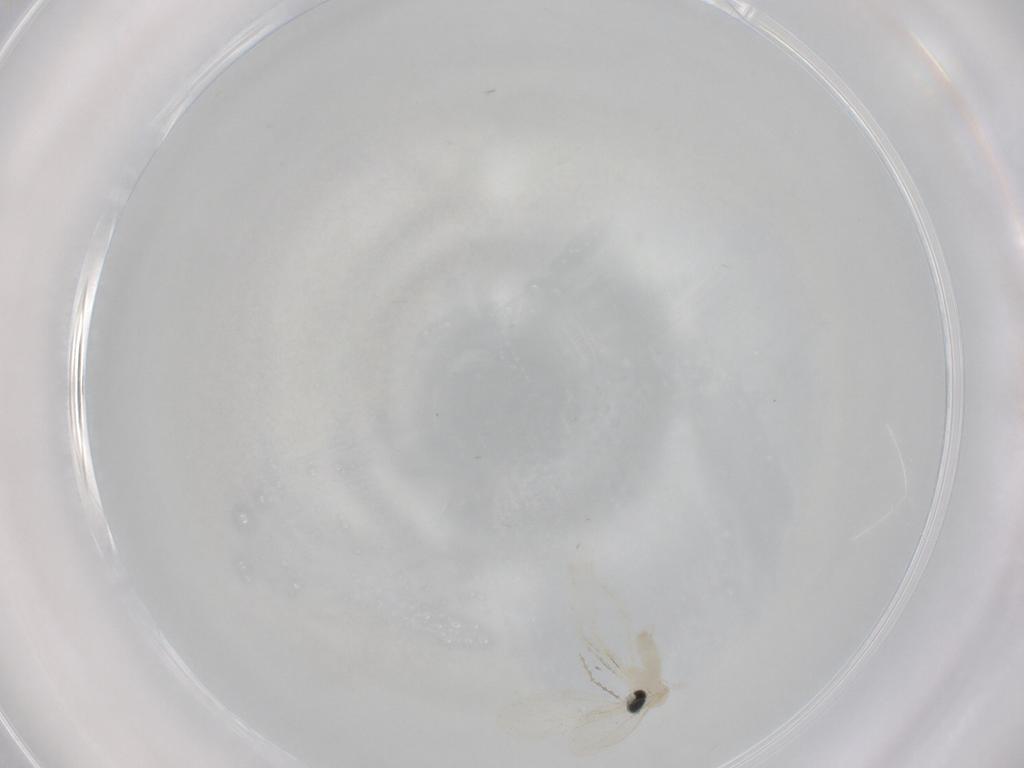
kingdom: Animalia
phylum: Arthropoda
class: Insecta
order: Diptera
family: Cecidomyiidae
